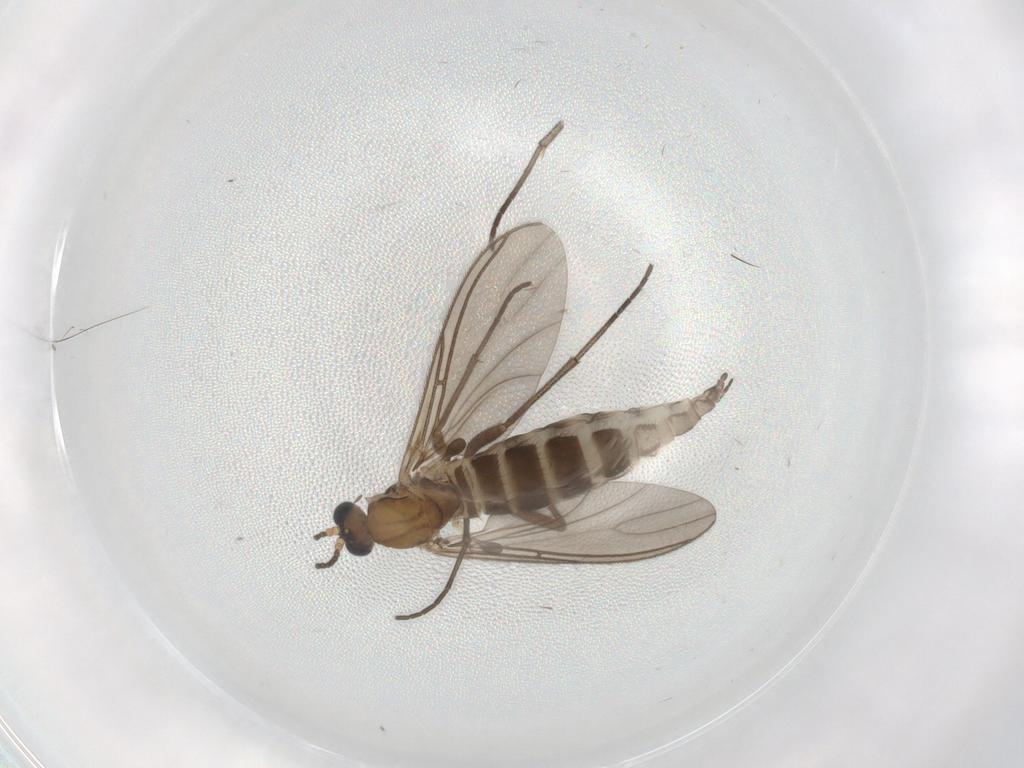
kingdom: Animalia
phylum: Arthropoda
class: Insecta
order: Diptera
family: Sciaridae
